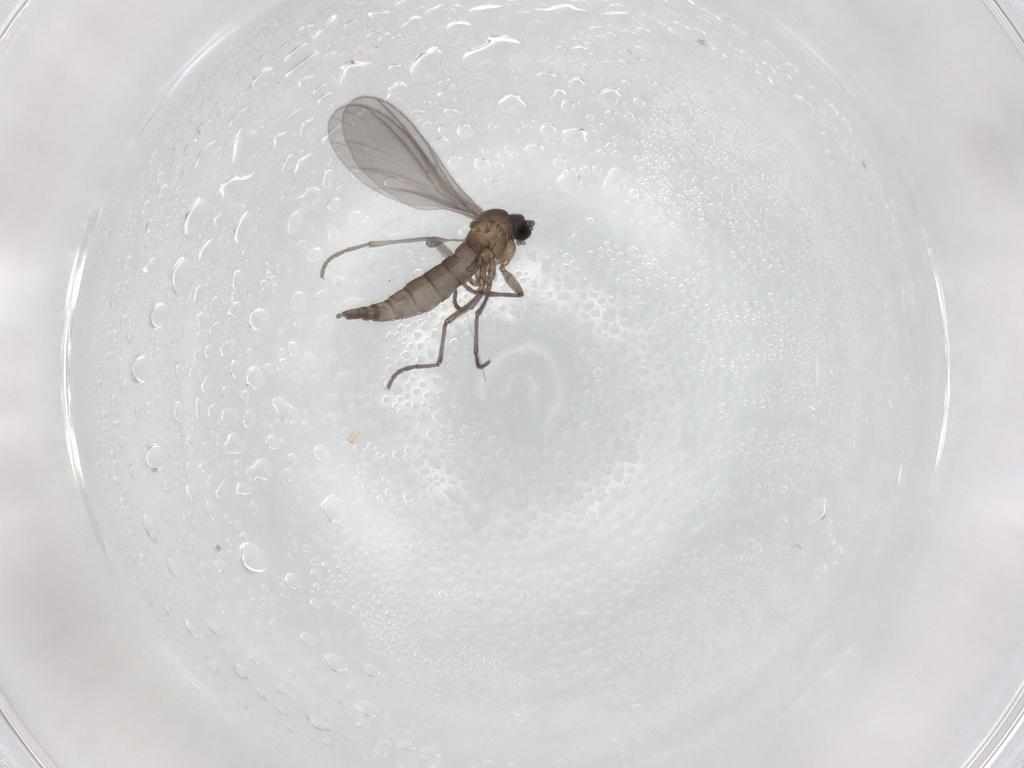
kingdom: Animalia
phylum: Arthropoda
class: Insecta
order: Diptera
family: Sciaridae
